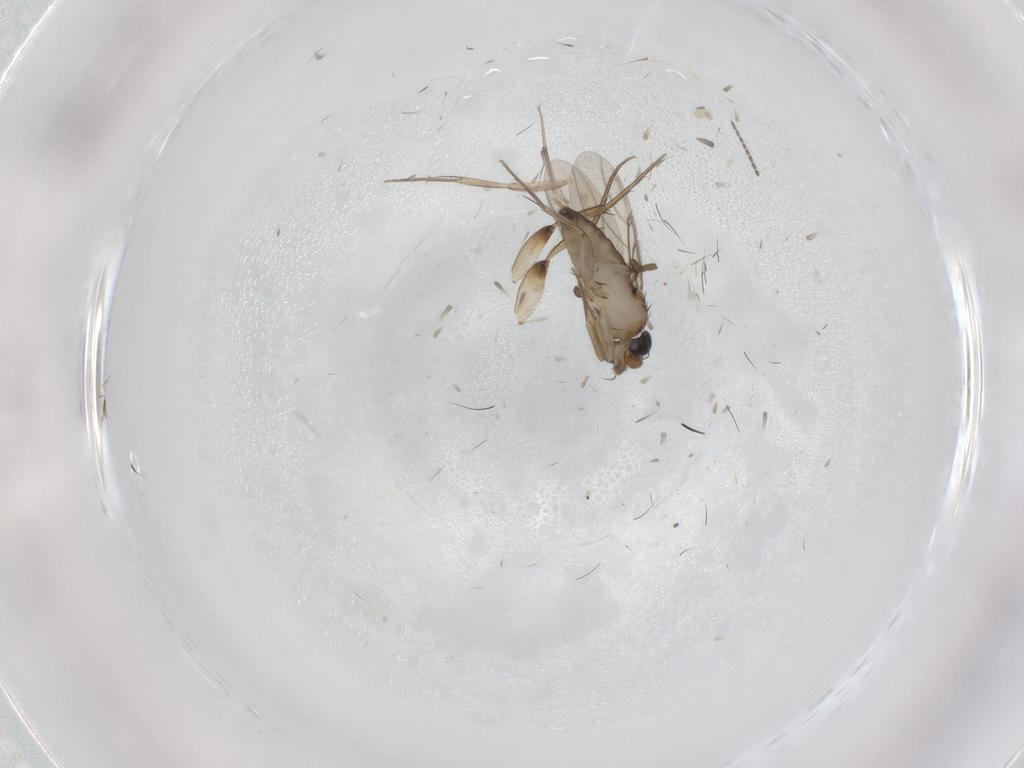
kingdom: Animalia
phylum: Arthropoda
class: Insecta
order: Diptera
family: Phoridae
